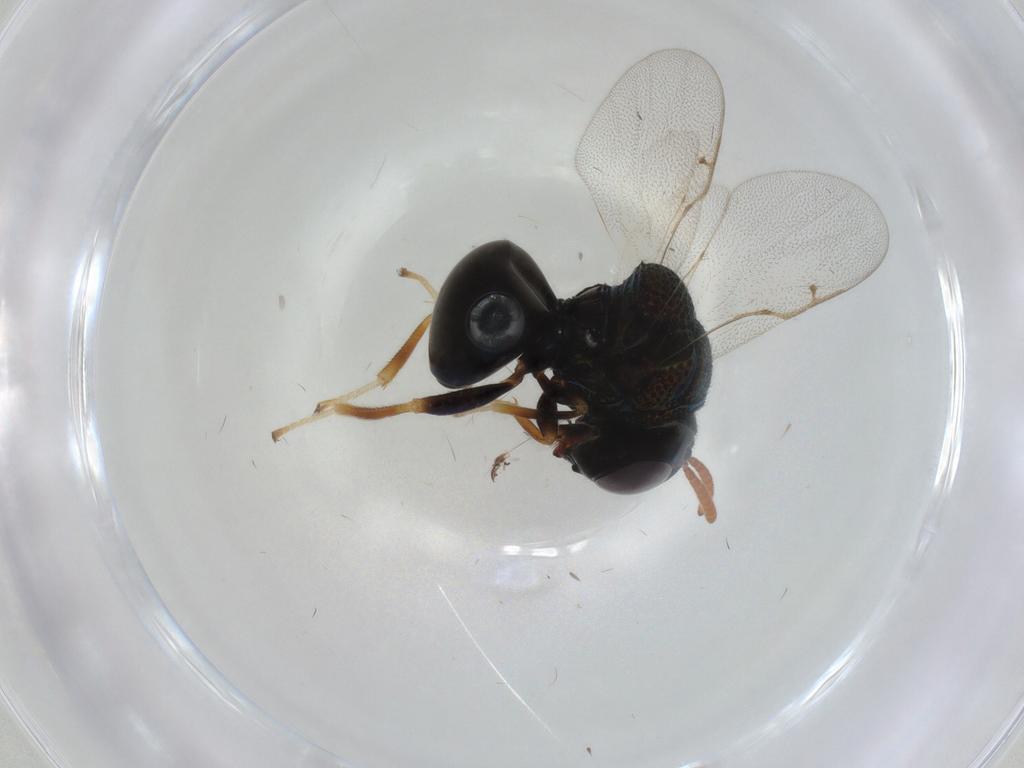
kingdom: Animalia
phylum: Arthropoda
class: Insecta
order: Hymenoptera
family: Perilampidae
